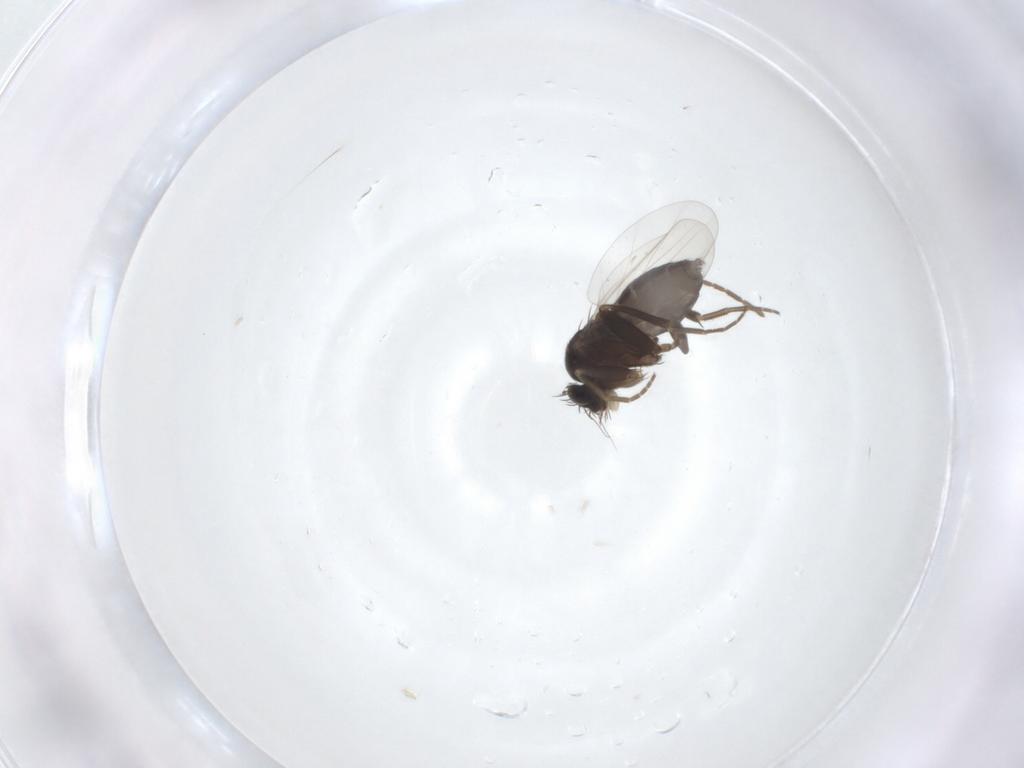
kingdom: Animalia
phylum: Arthropoda
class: Insecta
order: Diptera
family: Phoridae
